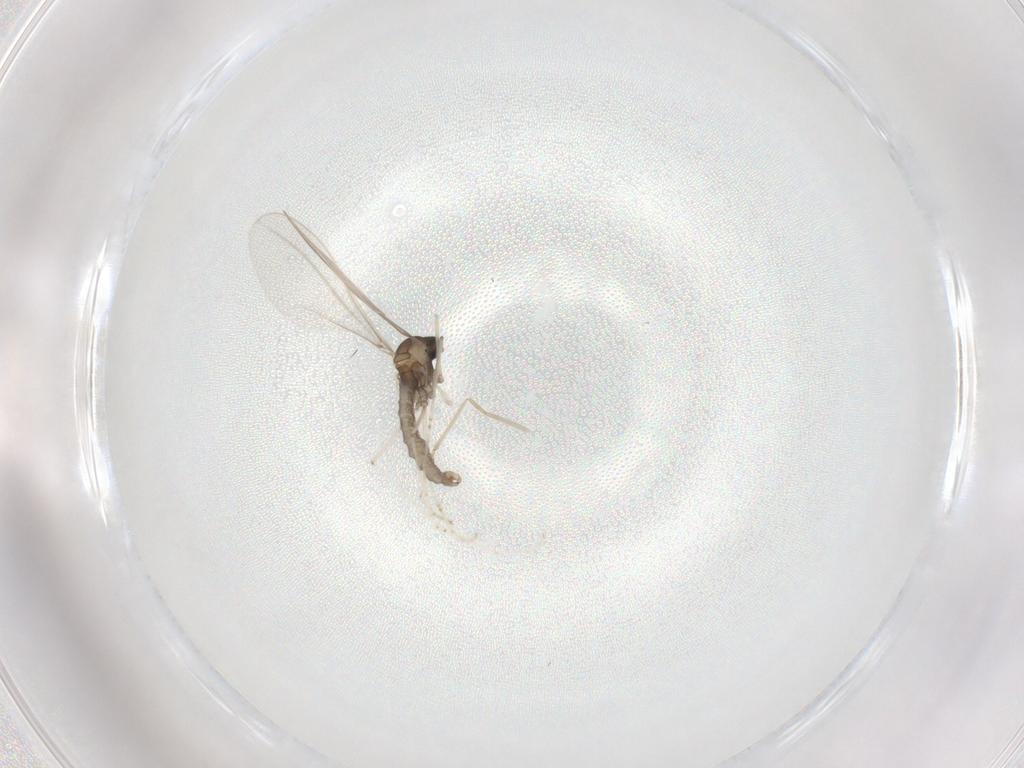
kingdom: Animalia
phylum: Arthropoda
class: Insecta
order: Diptera
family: Cecidomyiidae
